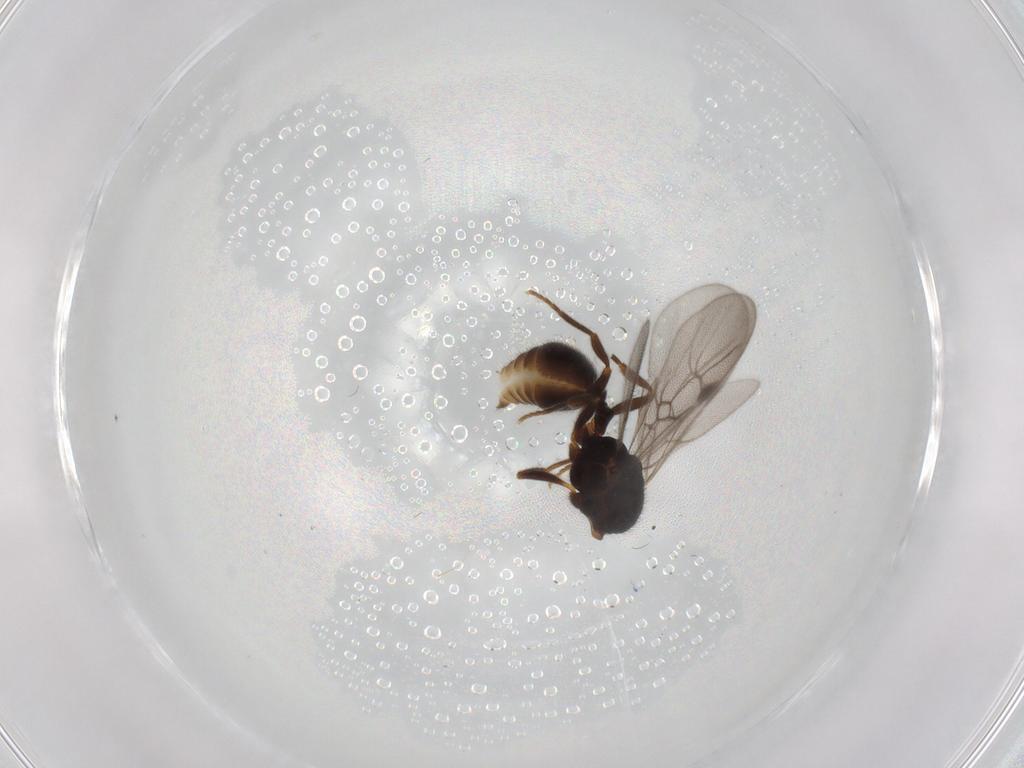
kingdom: Animalia
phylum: Arthropoda
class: Insecta
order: Hymenoptera
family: Formicidae
